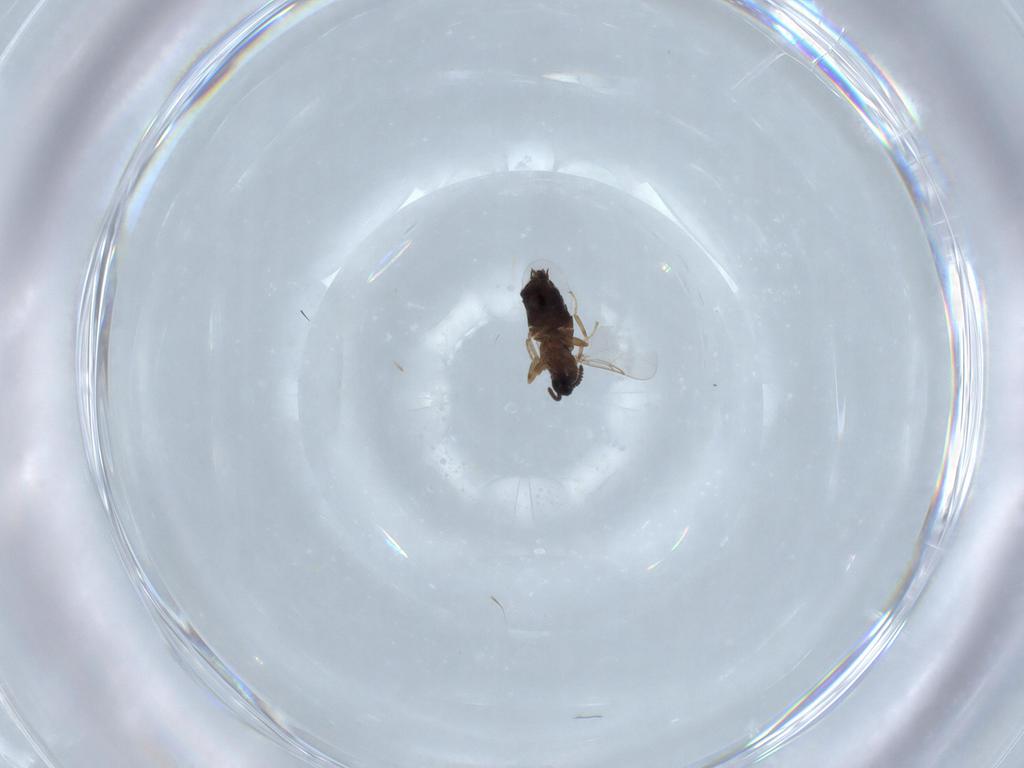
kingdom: Animalia
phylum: Arthropoda
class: Insecta
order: Diptera
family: Scatopsidae
